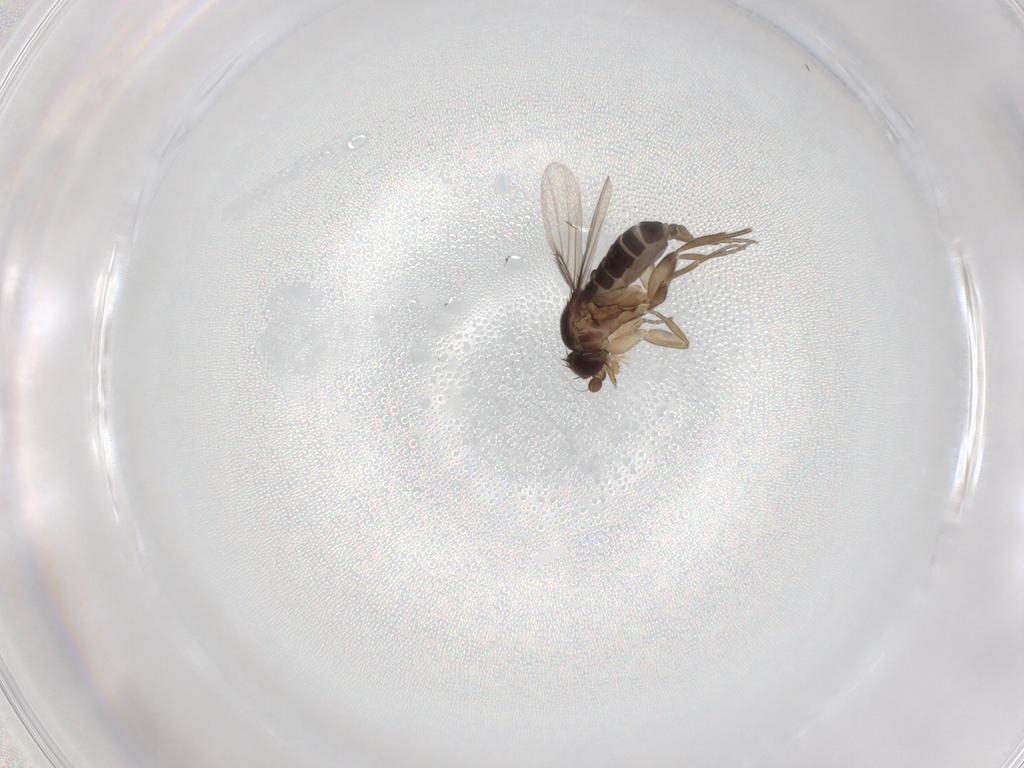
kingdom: Animalia
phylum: Arthropoda
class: Insecta
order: Diptera
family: Phoridae
